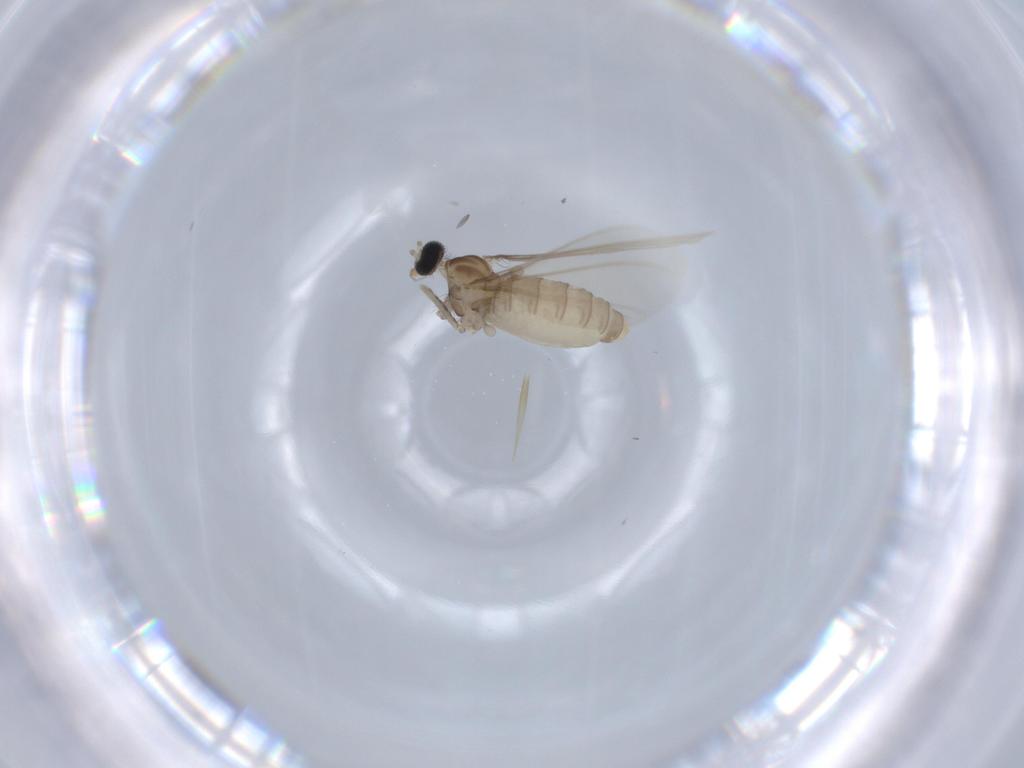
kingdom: Animalia
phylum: Arthropoda
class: Insecta
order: Diptera
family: Cecidomyiidae
